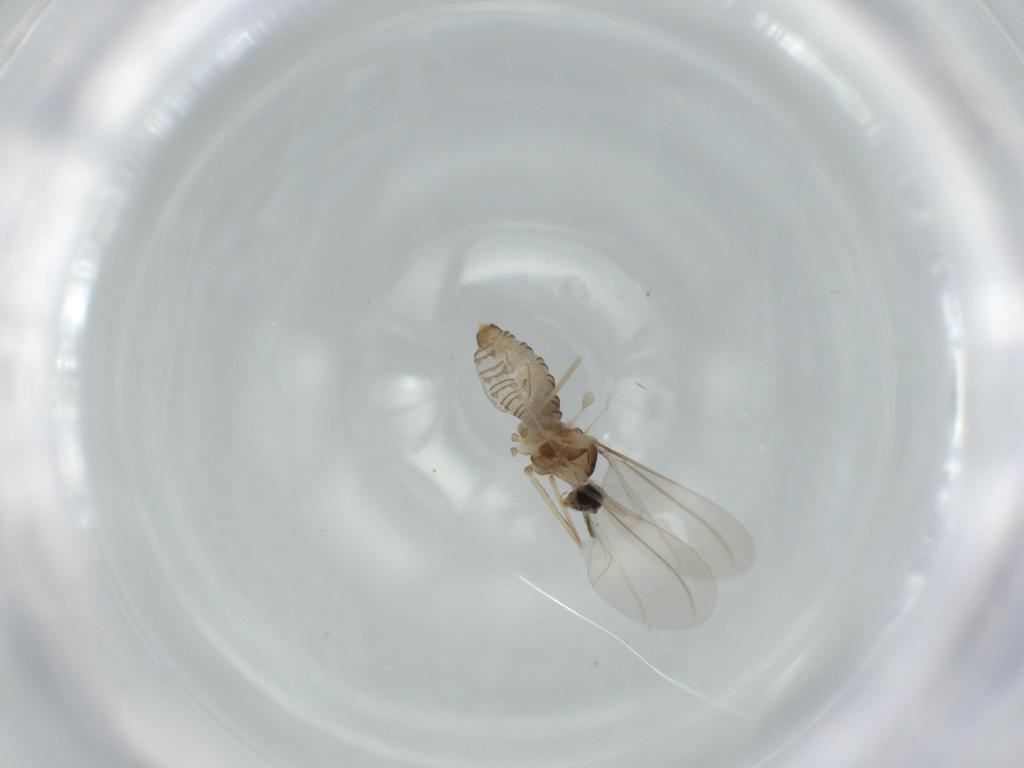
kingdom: Animalia
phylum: Arthropoda
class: Insecta
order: Diptera
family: Cecidomyiidae
